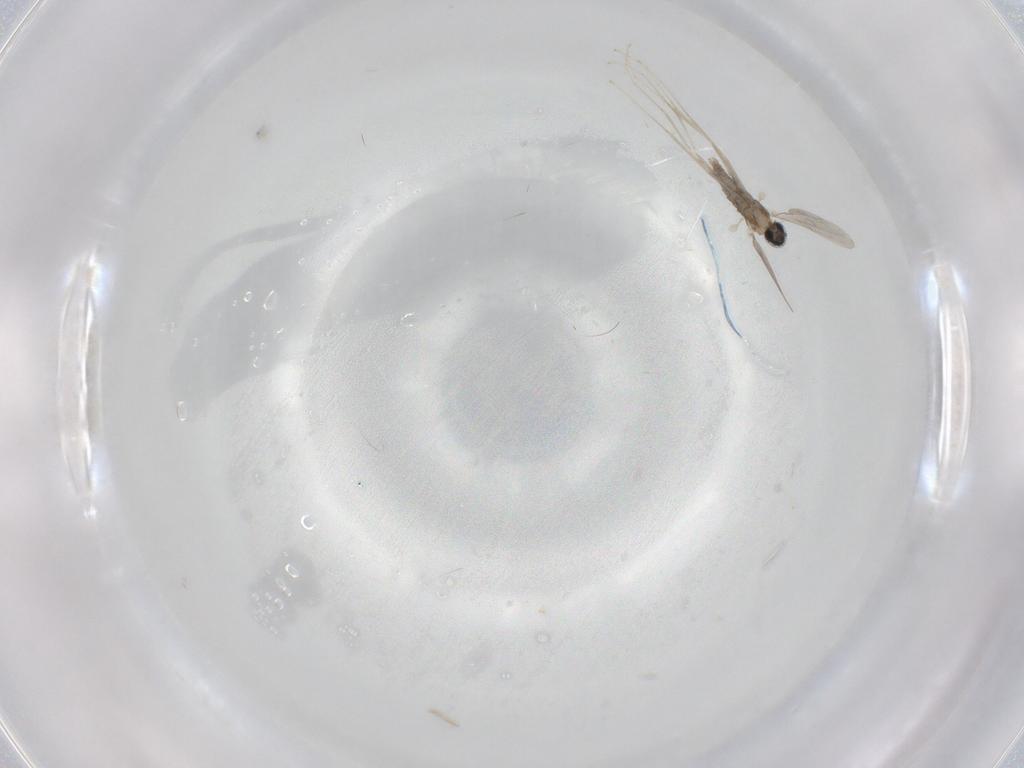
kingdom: Animalia
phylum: Arthropoda
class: Insecta
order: Diptera
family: Cecidomyiidae
